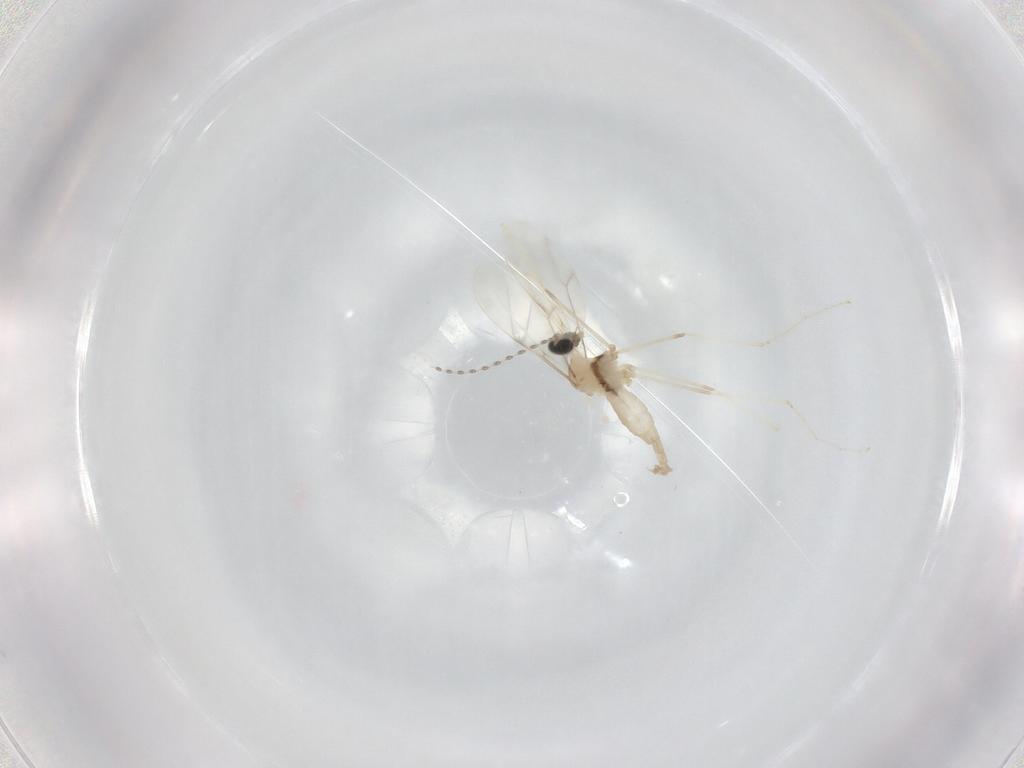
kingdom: Animalia
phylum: Arthropoda
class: Insecta
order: Diptera
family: Cecidomyiidae
